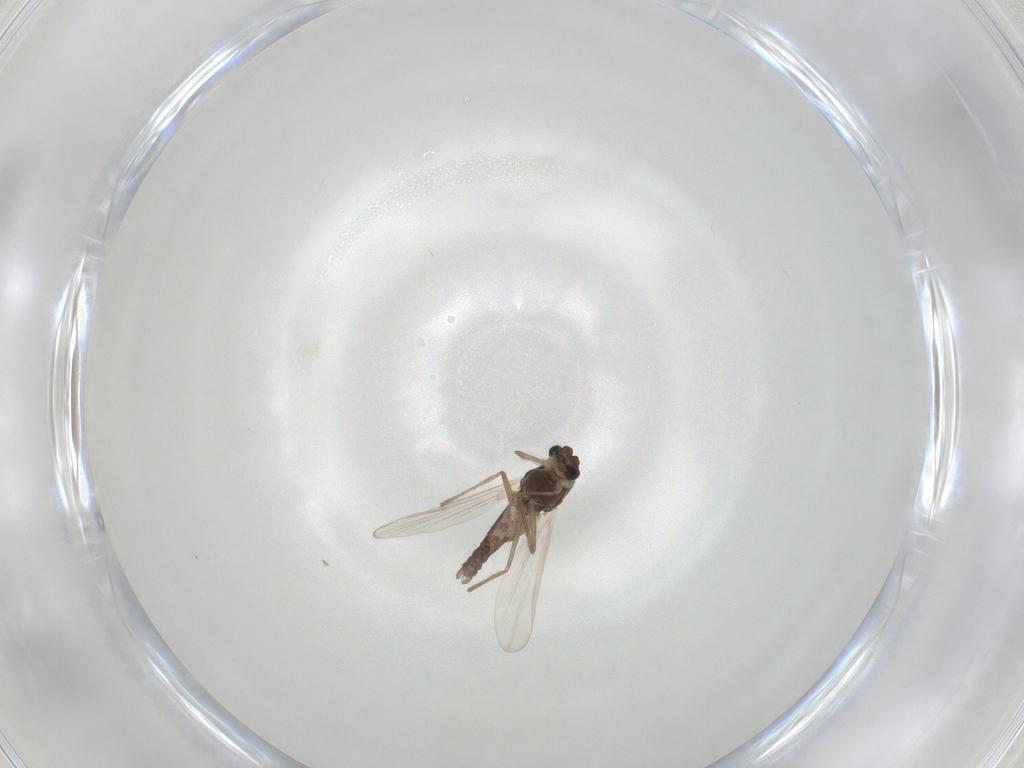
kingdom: Animalia
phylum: Arthropoda
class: Insecta
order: Diptera
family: Chironomidae
